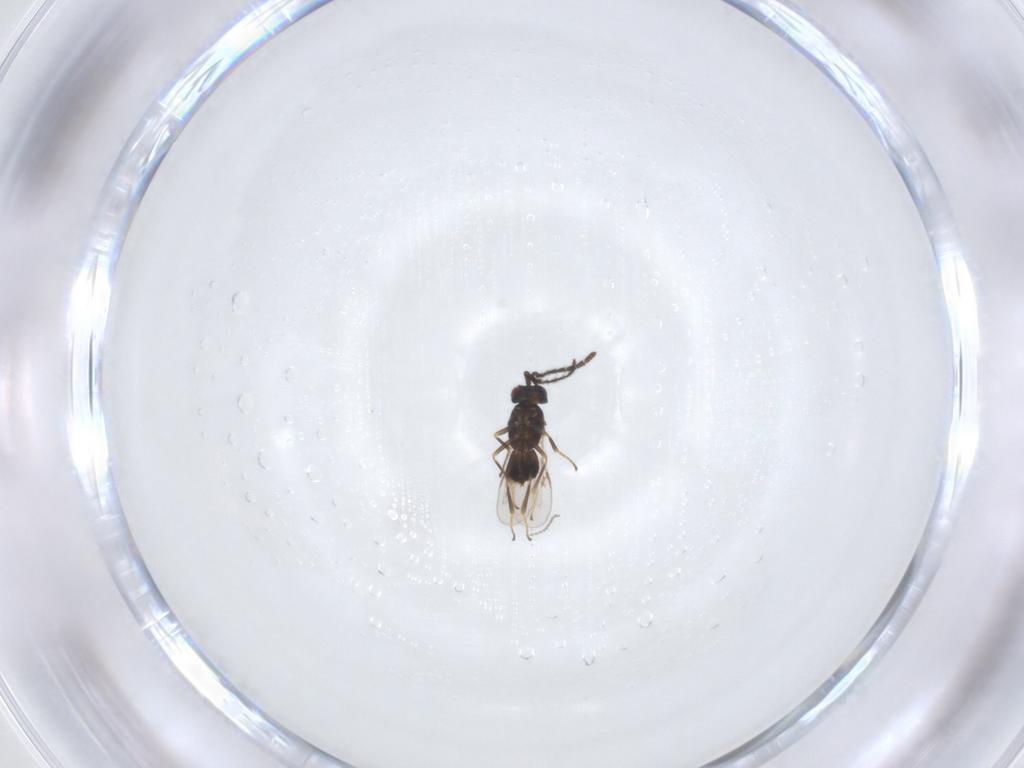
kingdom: Animalia
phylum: Arthropoda
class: Insecta
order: Hymenoptera
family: Encyrtidae
